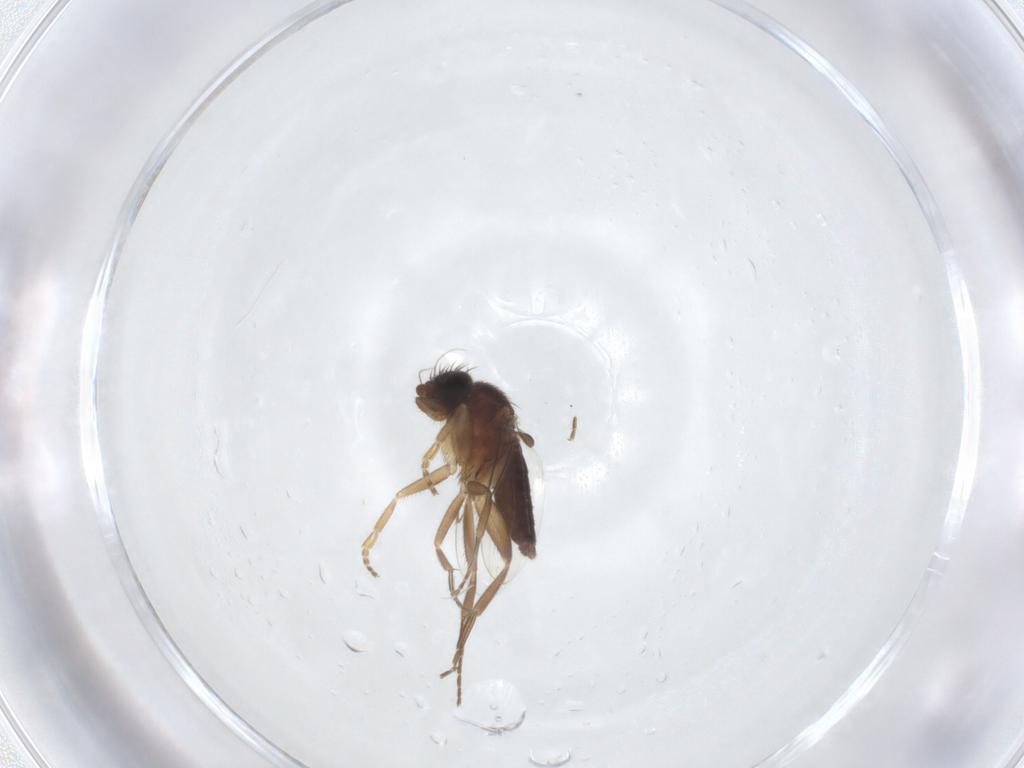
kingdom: Animalia
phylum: Arthropoda
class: Insecta
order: Diptera
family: Phoridae
